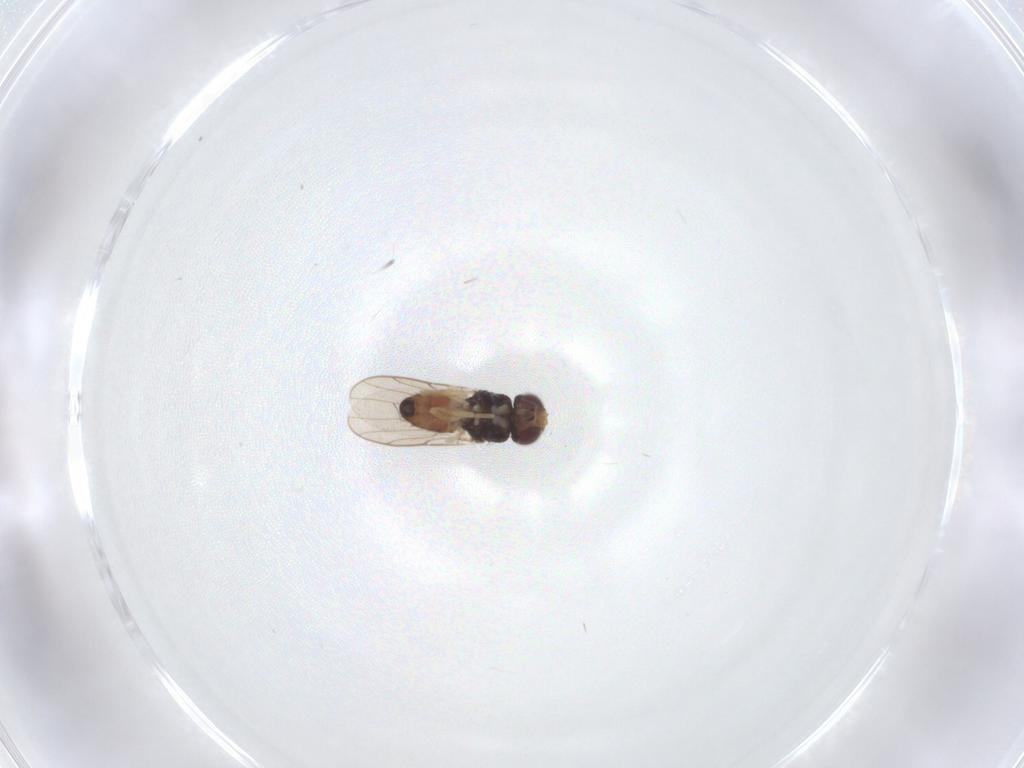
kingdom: Animalia
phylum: Arthropoda
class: Insecta
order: Diptera
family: Chloropidae
